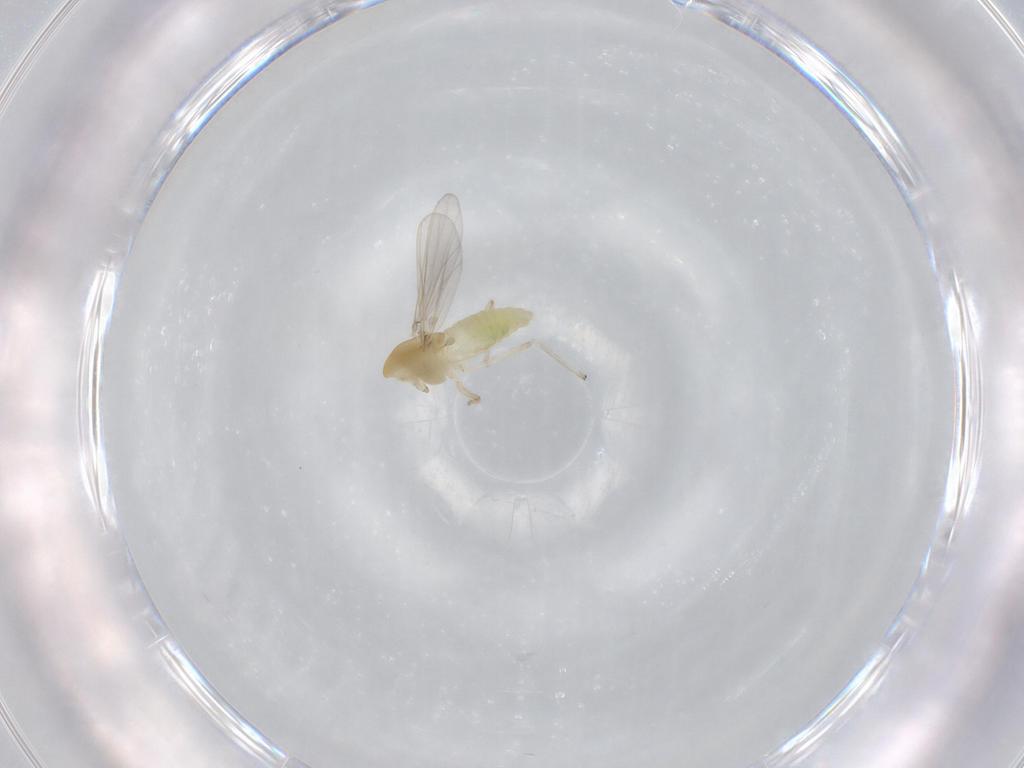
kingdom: Animalia
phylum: Arthropoda
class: Insecta
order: Diptera
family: Chironomidae
